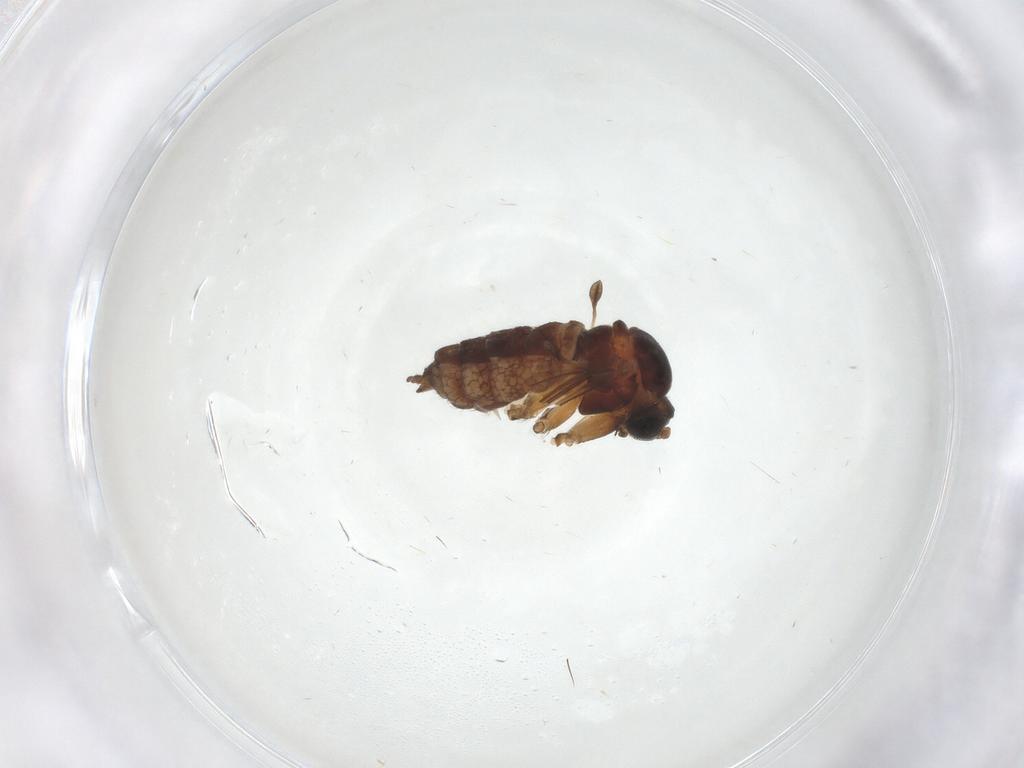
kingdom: Animalia
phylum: Arthropoda
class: Insecta
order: Diptera
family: Sciaridae
